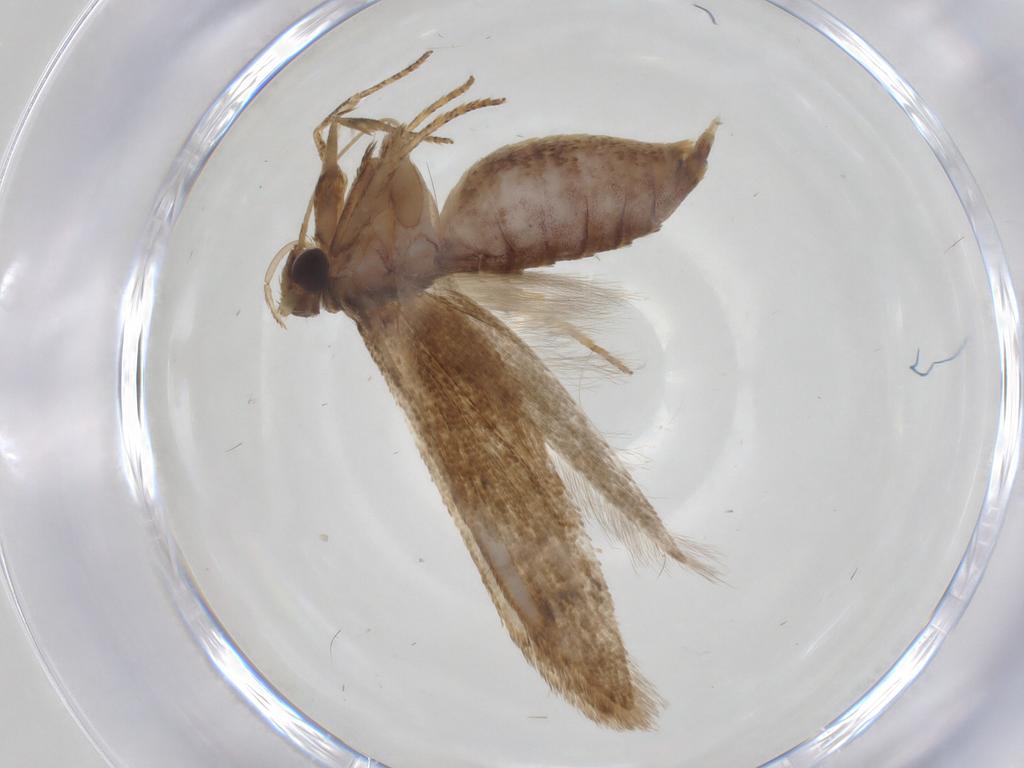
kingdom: Animalia
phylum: Arthropoda
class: Insecta
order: Lepidoptera
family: Blastobasidae
